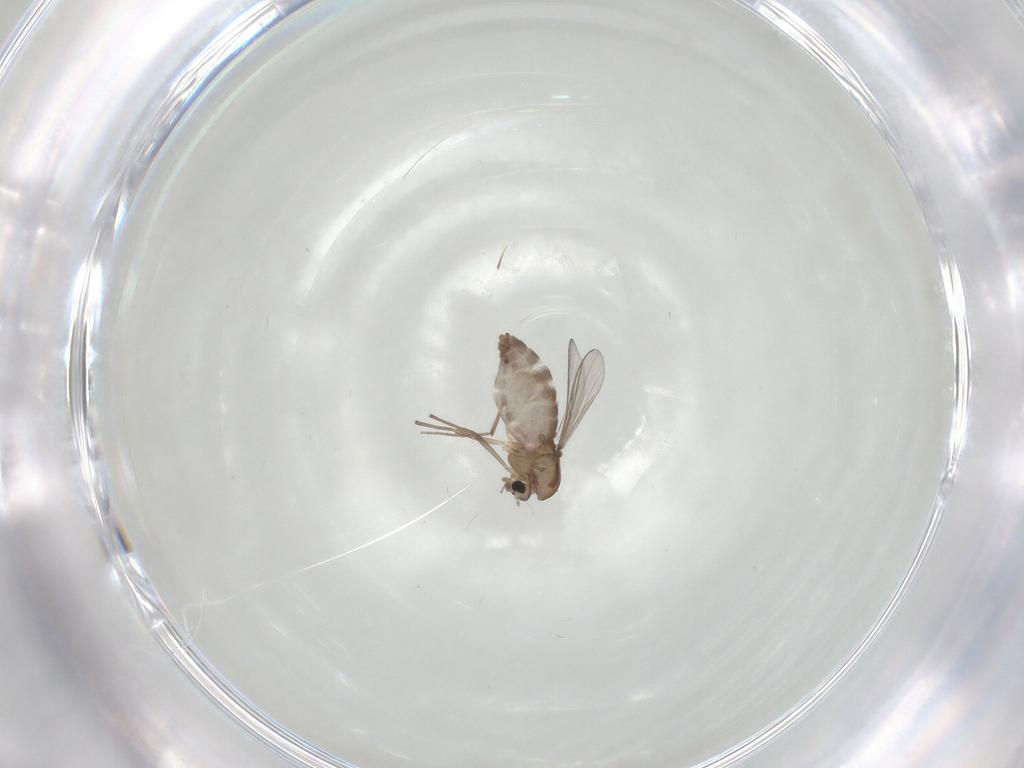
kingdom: Animalia
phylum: Arthropoda
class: Insecta
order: Diptera
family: Chironomidae
